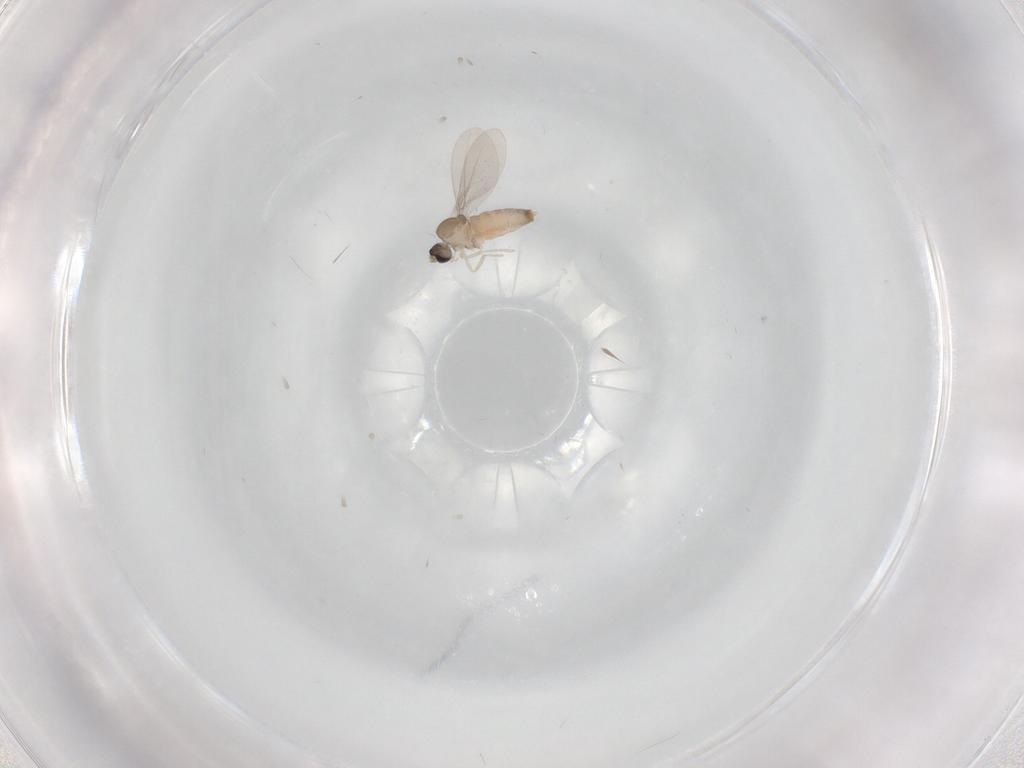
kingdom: Animalia
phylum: Arthropoda
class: Insecta
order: Diptera
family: Cecidomyiidae
